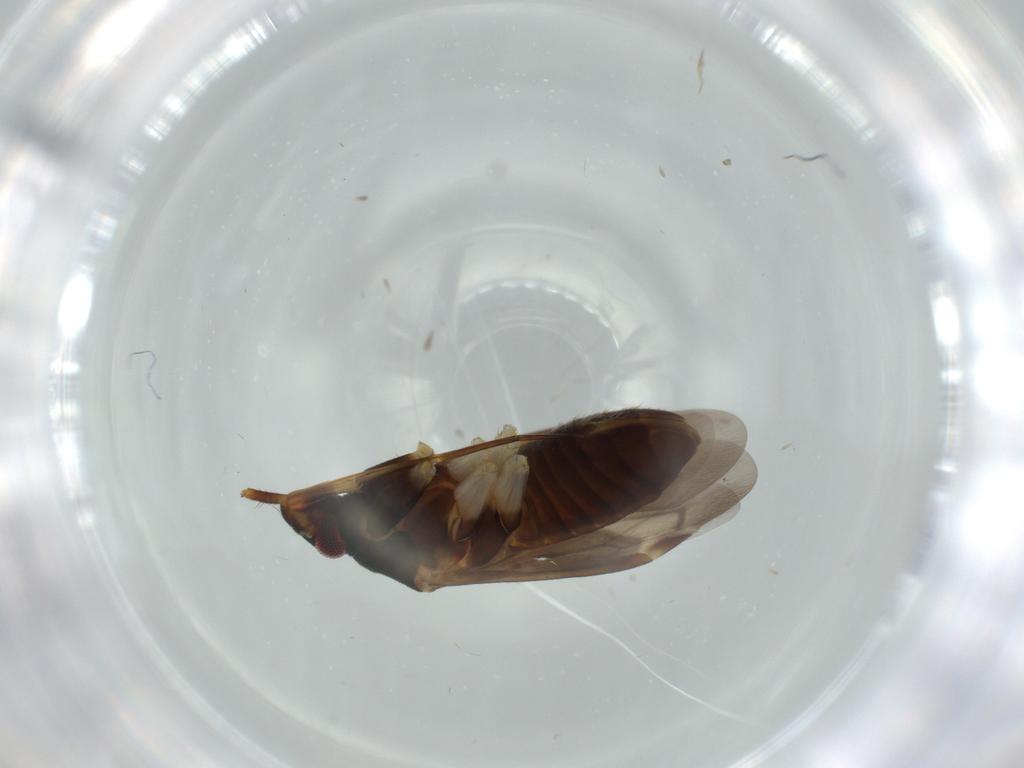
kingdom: Animalia
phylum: Arthropoda
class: Insecta
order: Hemiptera
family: Miridae
